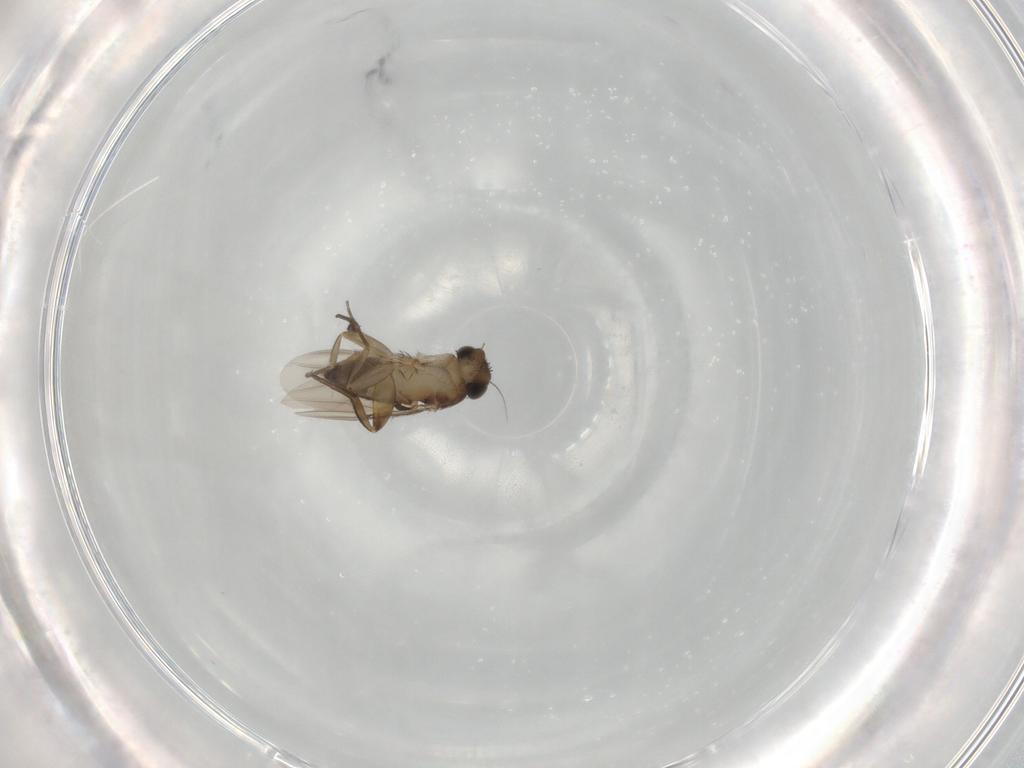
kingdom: Animalia
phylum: Arthropoda
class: Insecta
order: Diptera
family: Phoridae
